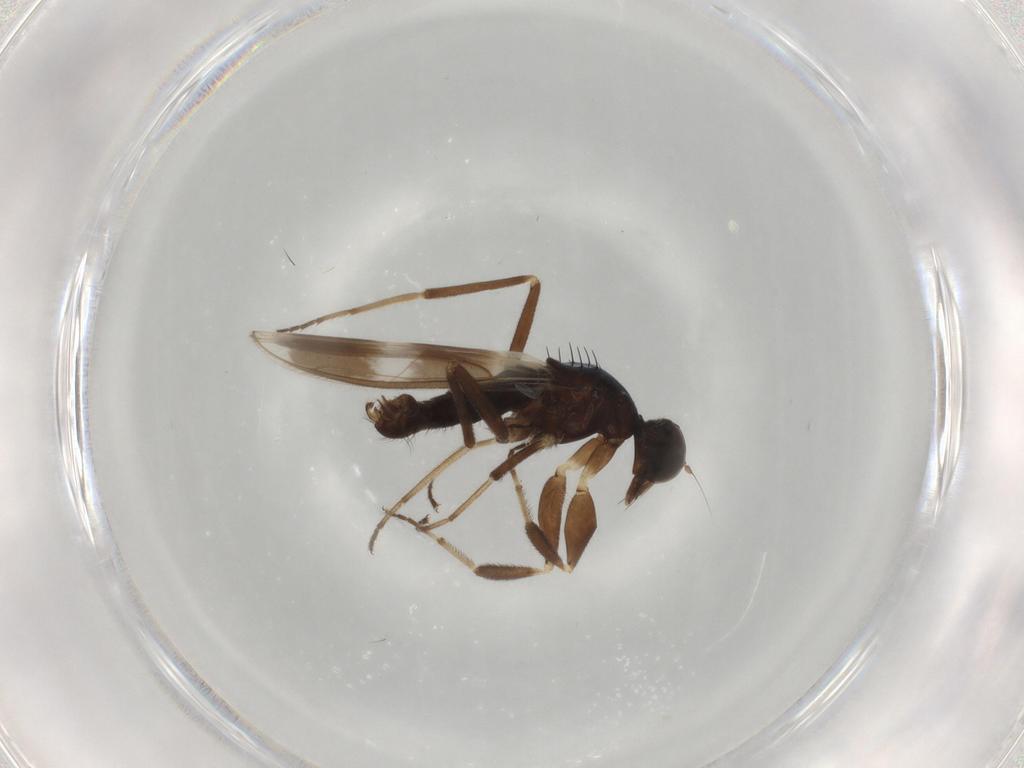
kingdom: Animalia
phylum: Arthropoda
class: Insecta
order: Diptera
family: Hybotidae
